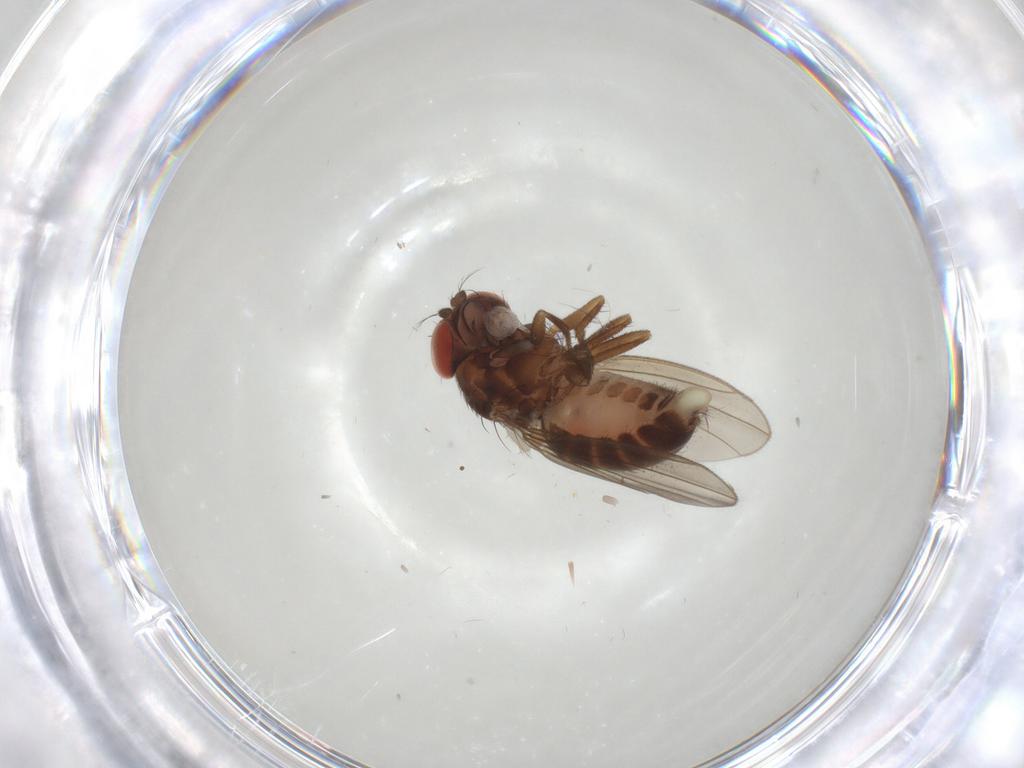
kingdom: Animalia
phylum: Arthropoda
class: Insecta
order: Diptera
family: Drosophilidae
